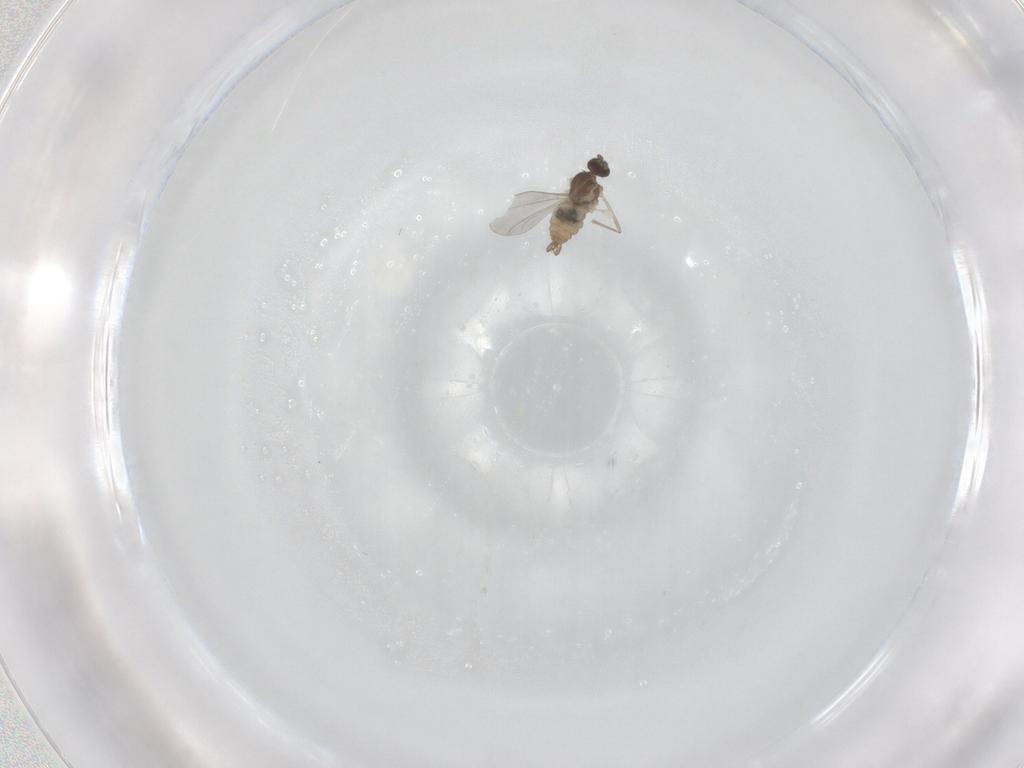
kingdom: Animalia
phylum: Arthropoda
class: Insecta
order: Diptera
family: Cecidomyiidae
